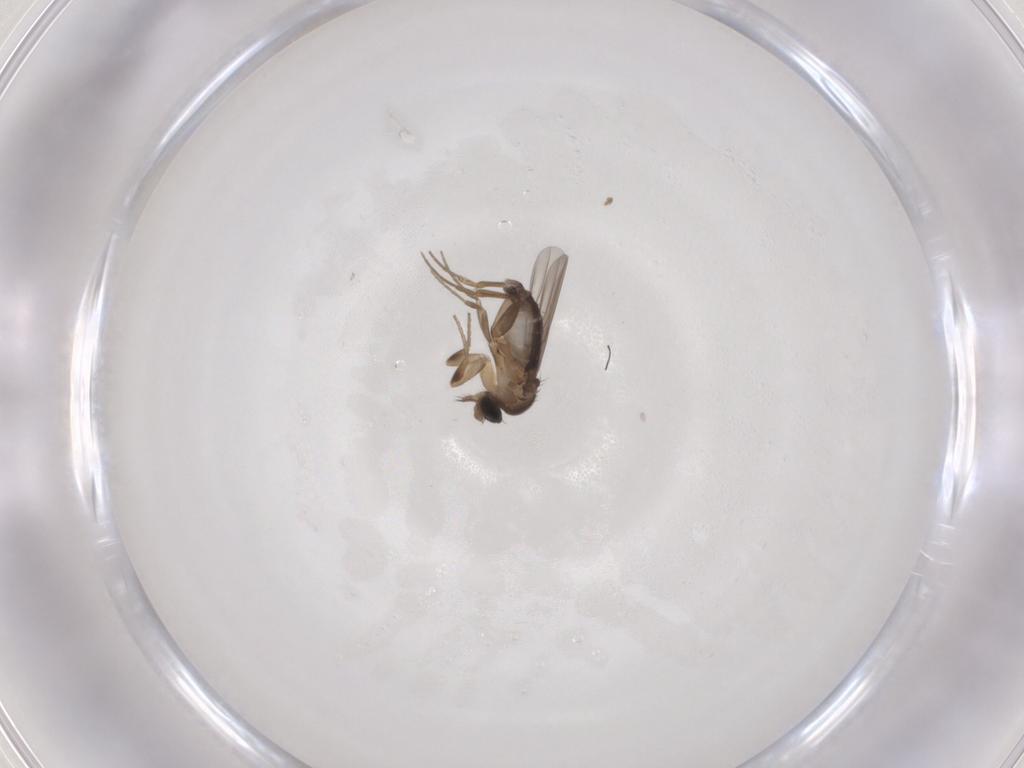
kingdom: Animalia
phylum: Arthropoda
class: Insecta
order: Diptera
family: Phoridae
